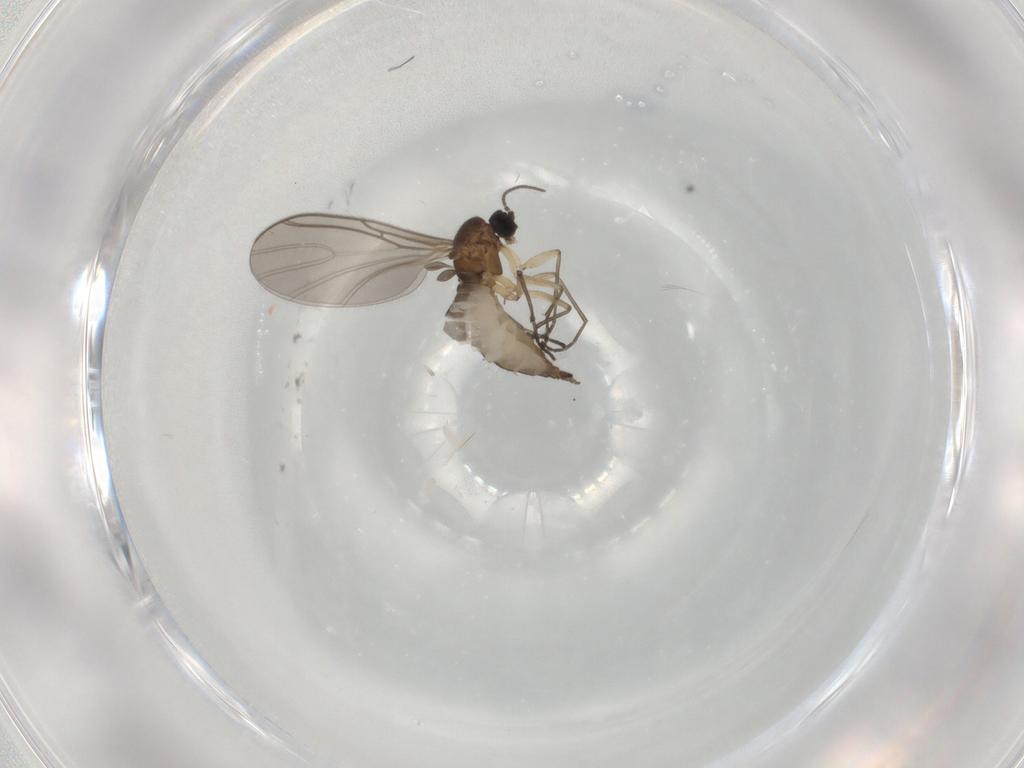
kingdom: Animalia
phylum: Arthropoda
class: Insecta
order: Diptera
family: Sciaridae
